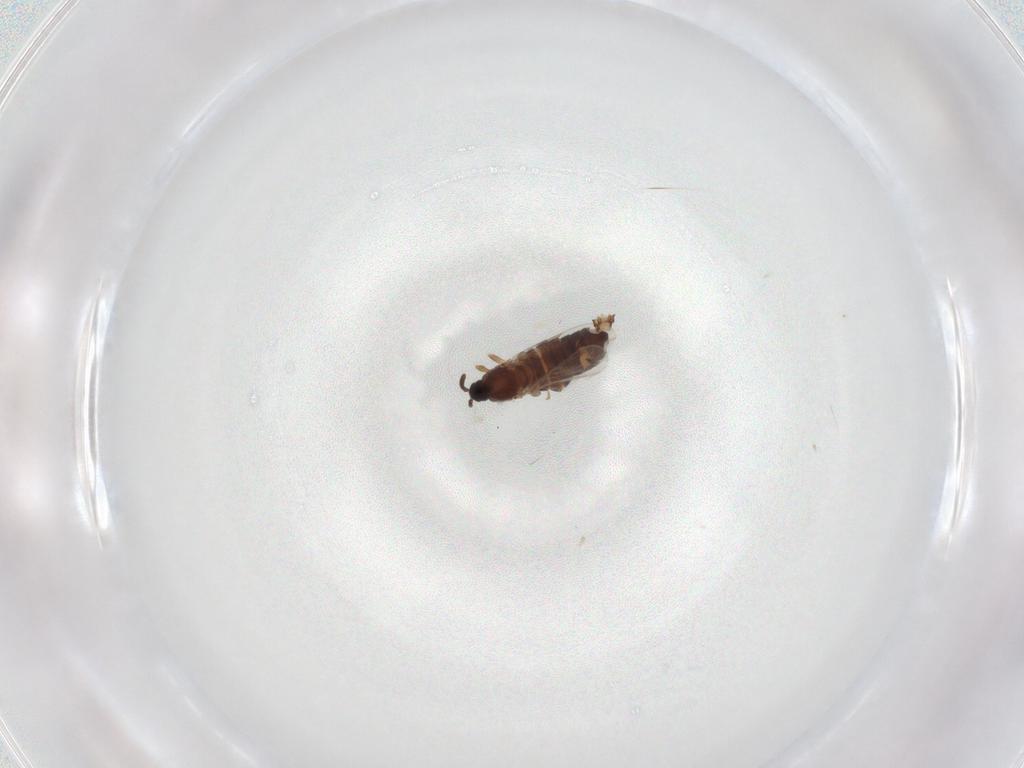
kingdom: Animalia
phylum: Arthropoda
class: Insecta
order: Diptera
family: Scatopsidae
